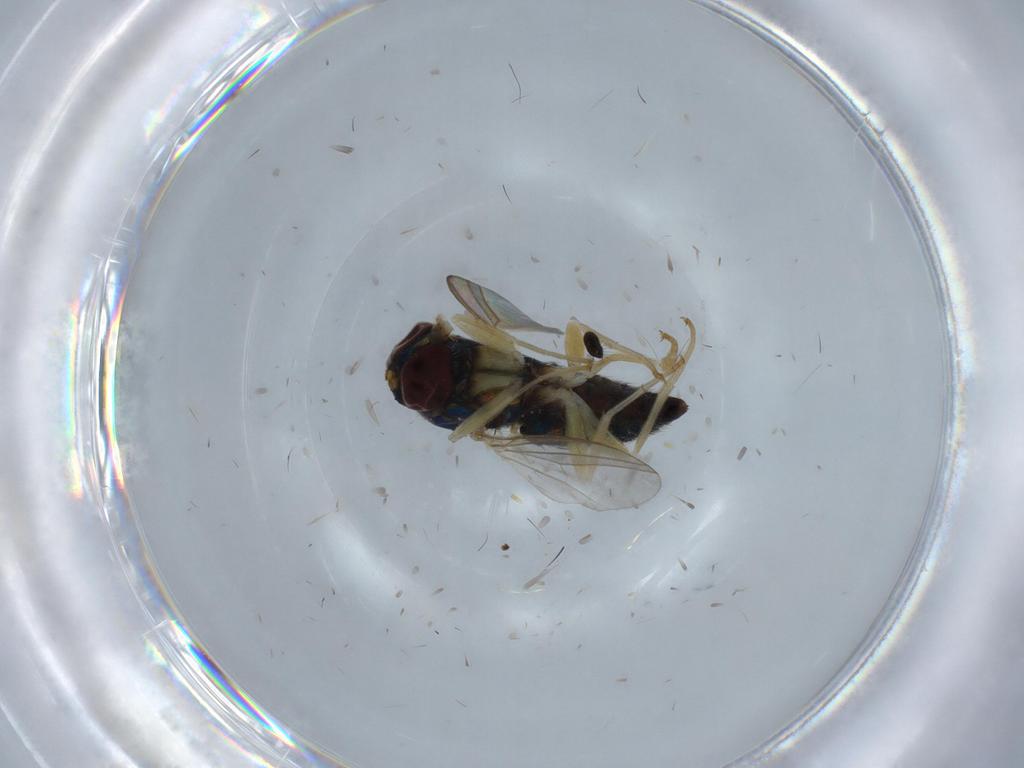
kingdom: Animalia
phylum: Arthropoda
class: Insecta
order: Diptera
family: Dolichopodidae
